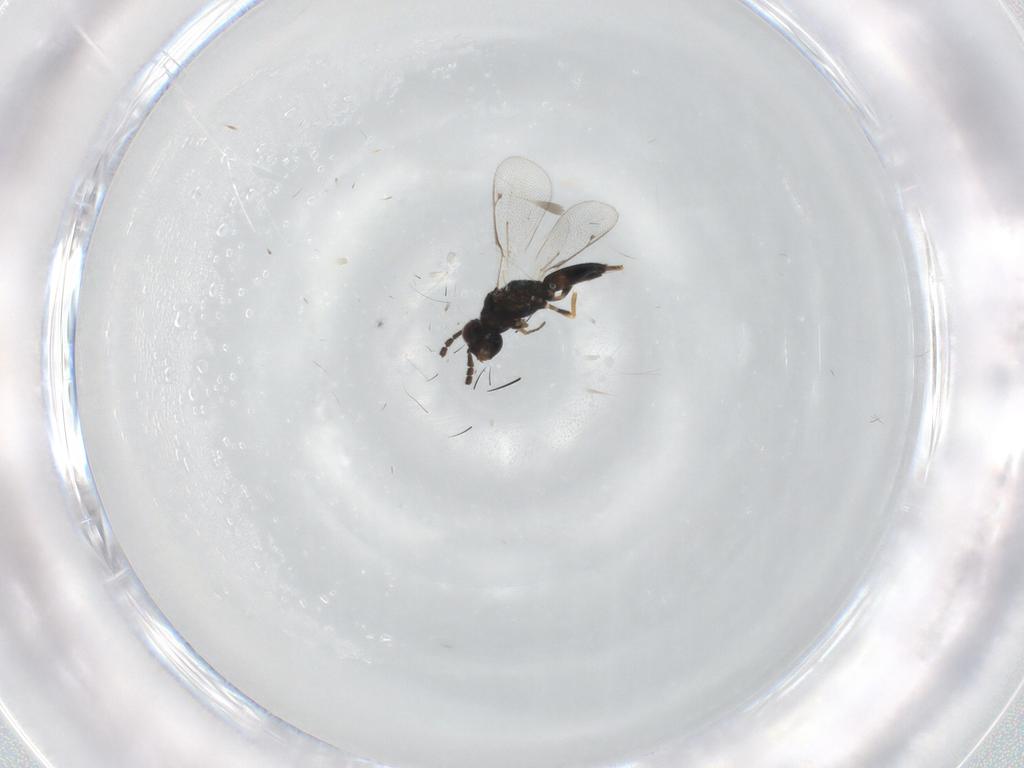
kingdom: Animalia
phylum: Arthropoda
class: Insecta
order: Hymenoptera
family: Eulophidae
